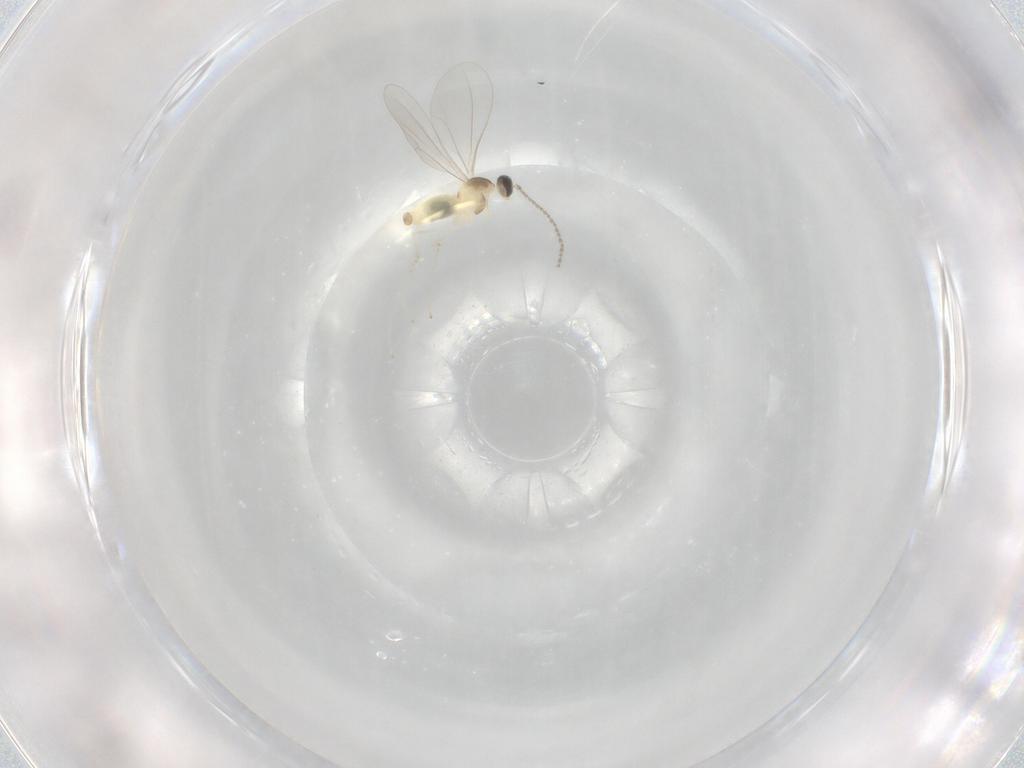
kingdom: Animalia
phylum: Arthropoda
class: Insecta
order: Diptera
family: Cecidomyiidae
